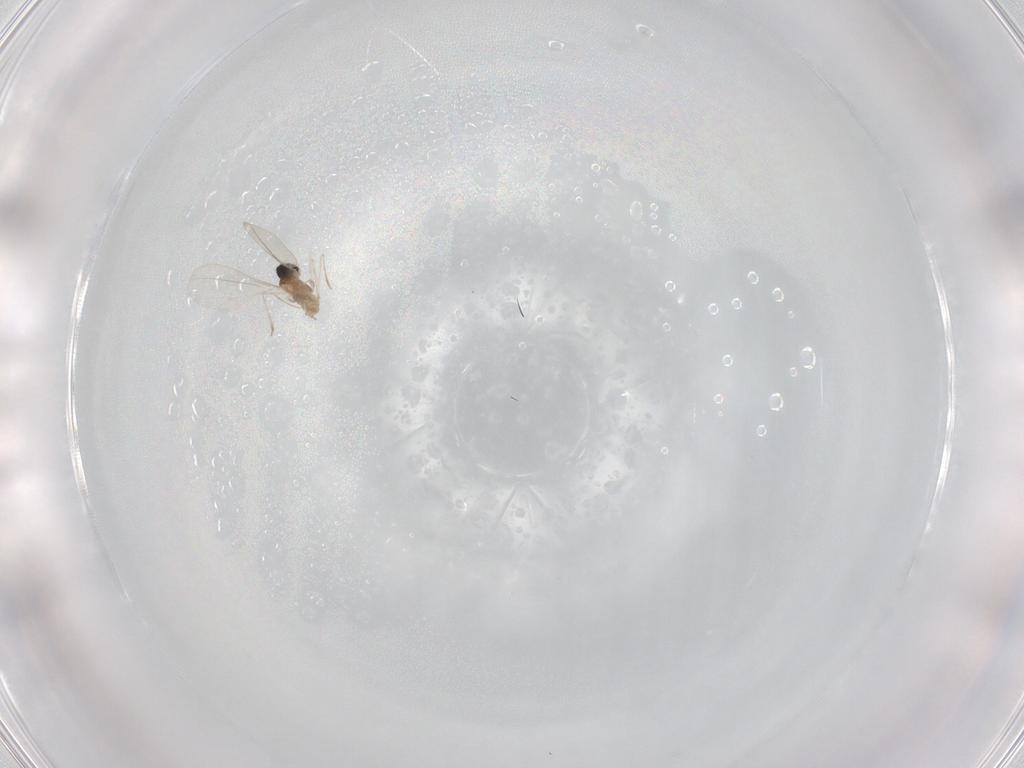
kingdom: Animalia
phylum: Arthropoda
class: Insecta
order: Diptera
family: Cecidomyiidae
